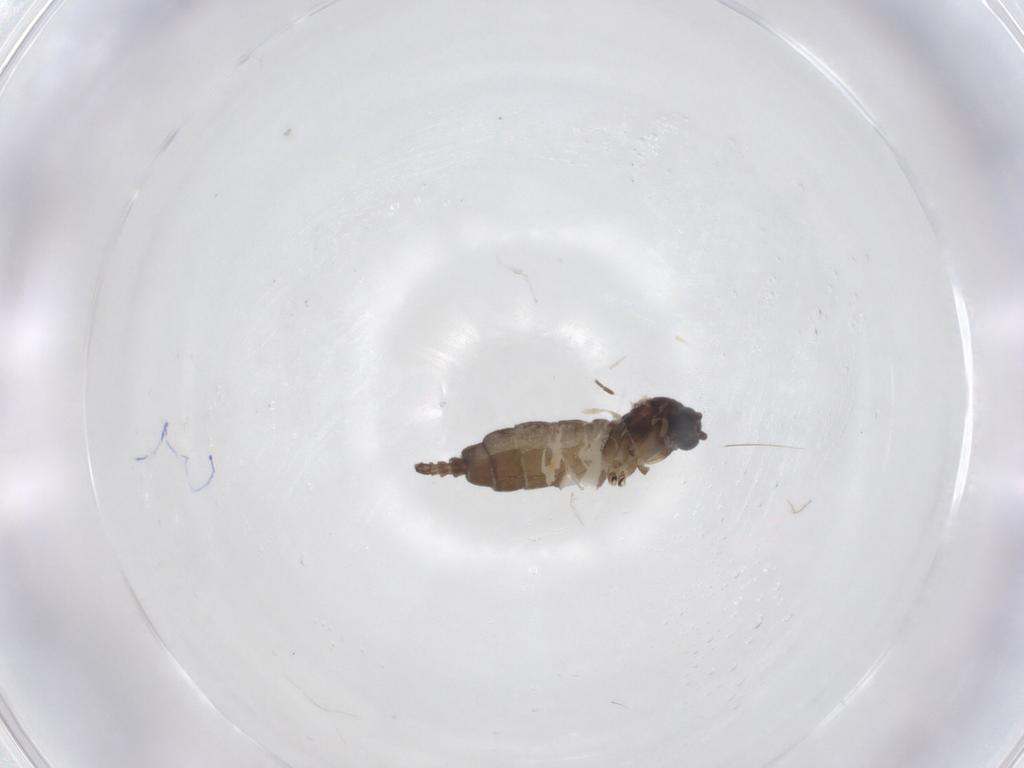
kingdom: Animalia
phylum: Arthropoda
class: Insecta
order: Diptera
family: Sciaridae
